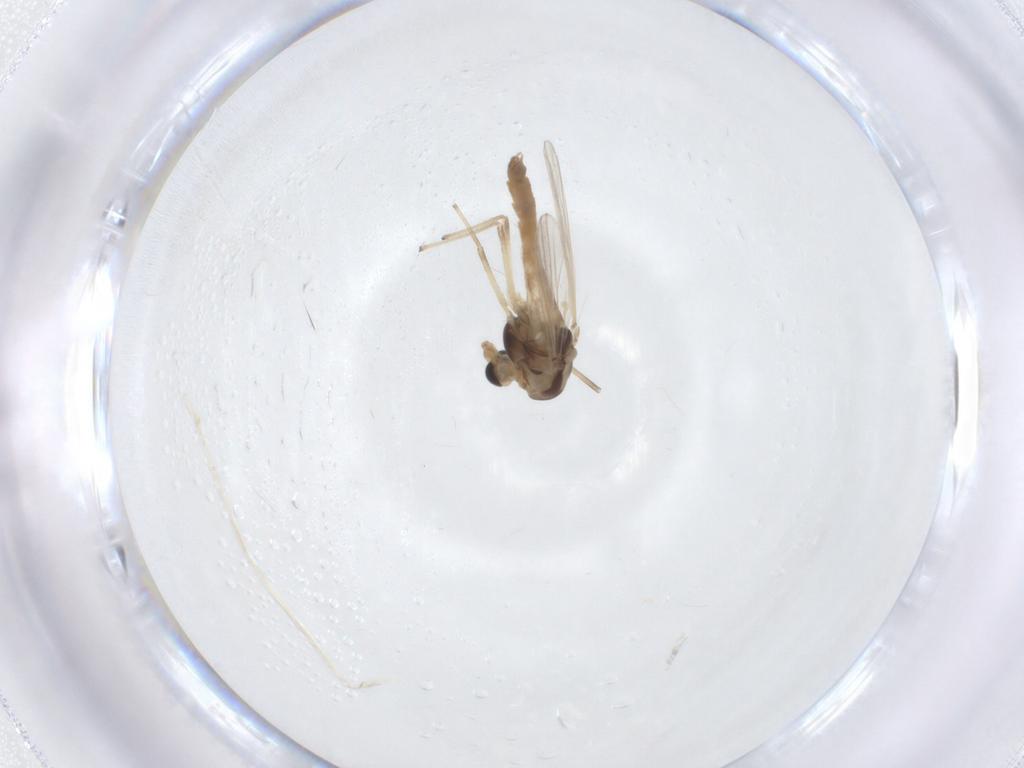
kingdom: Animalia
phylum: Arthropoda
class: Insecta
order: Diptera
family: Chironomidae
